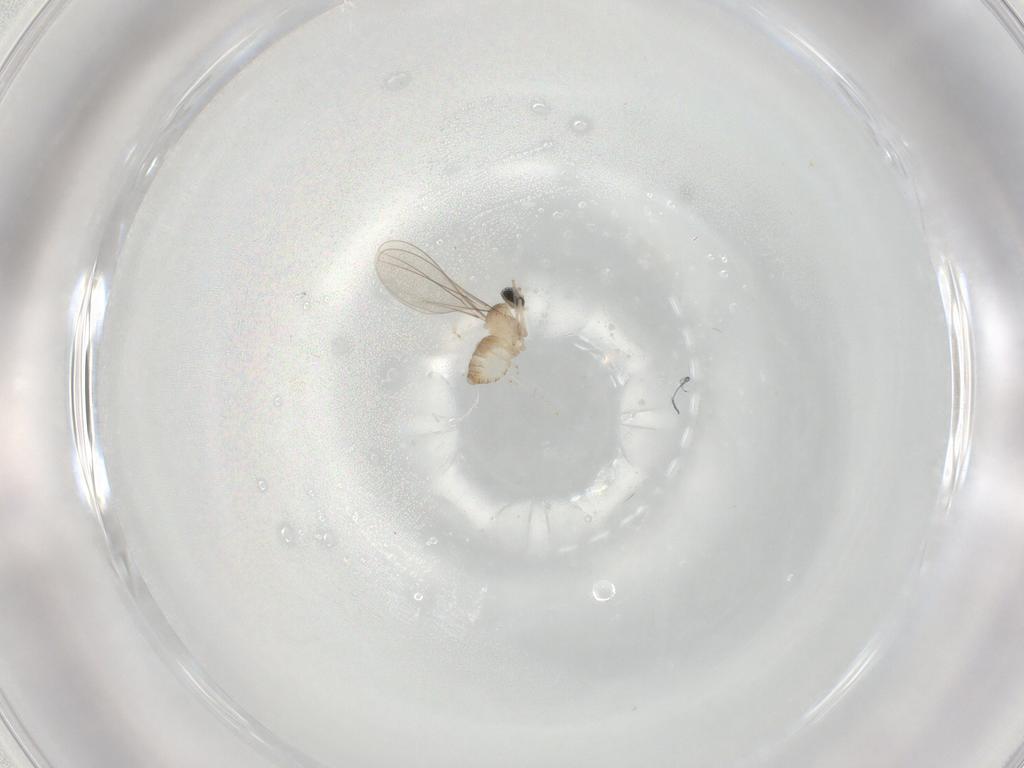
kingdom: Animalia
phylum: Arthropoda
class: Insecta
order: Diptera
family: Cecidomyiidae
